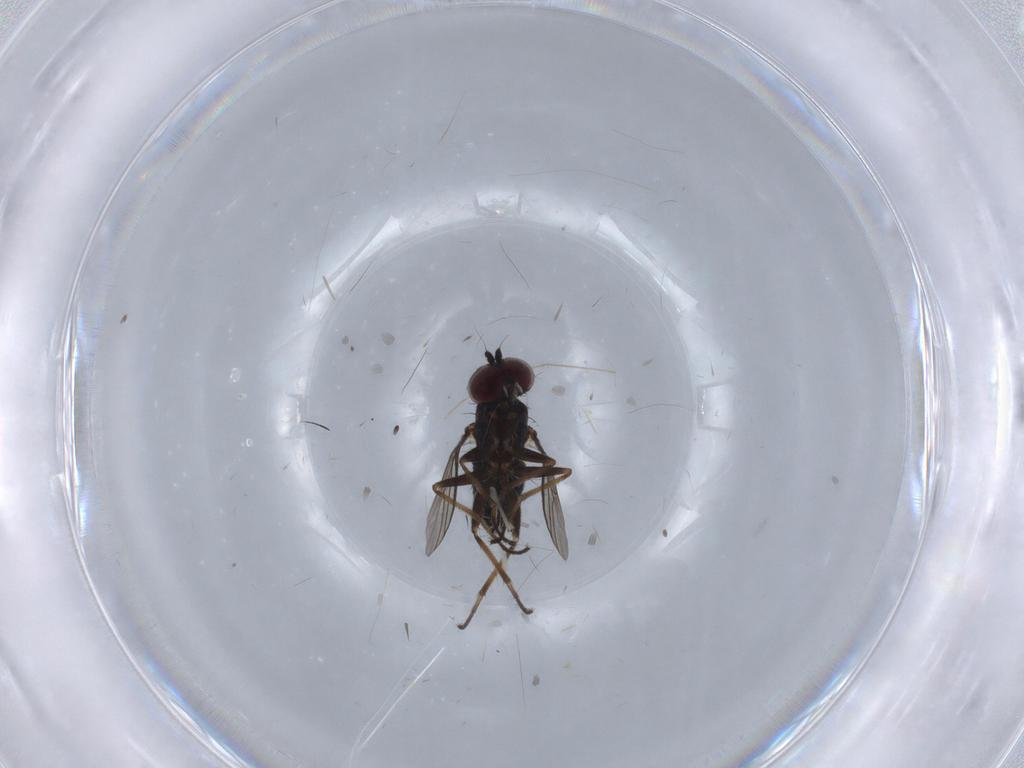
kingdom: Animalia
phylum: Arthropoda
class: Insecta
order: Diptera
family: Dolichopodidae
